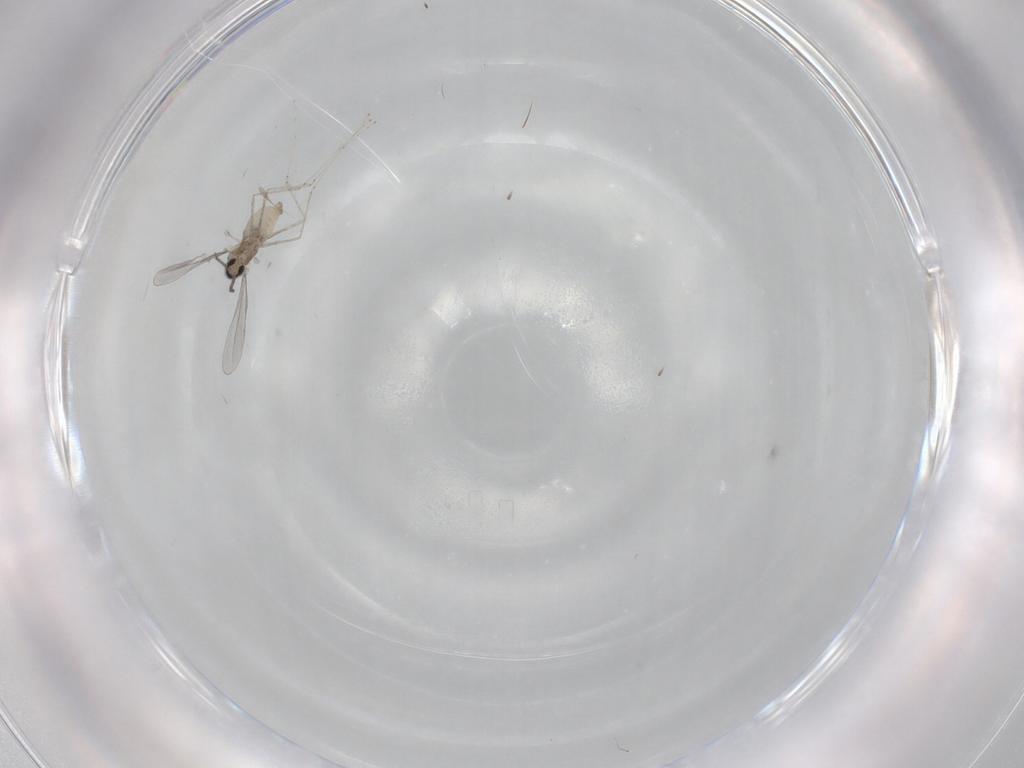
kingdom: Animalia
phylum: Arthropoda
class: Insecta
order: Diptera
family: Cecidomyiidae
